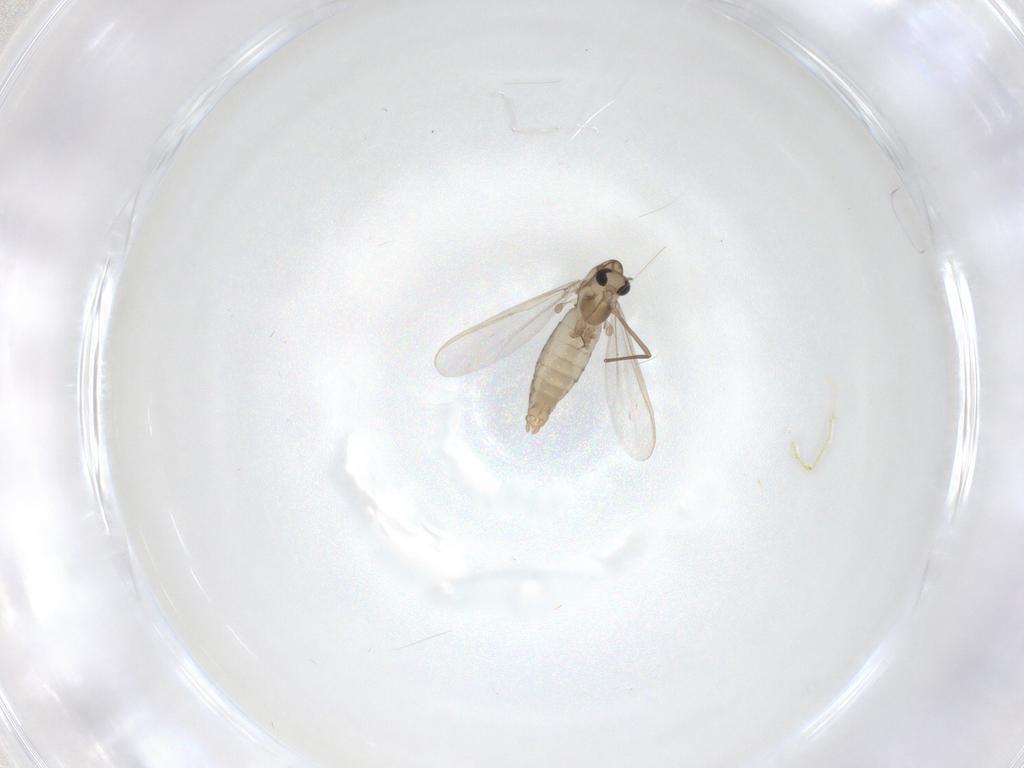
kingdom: Animalia
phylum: Arthropoda
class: Insecta
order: Diptera
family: Chironomidae
